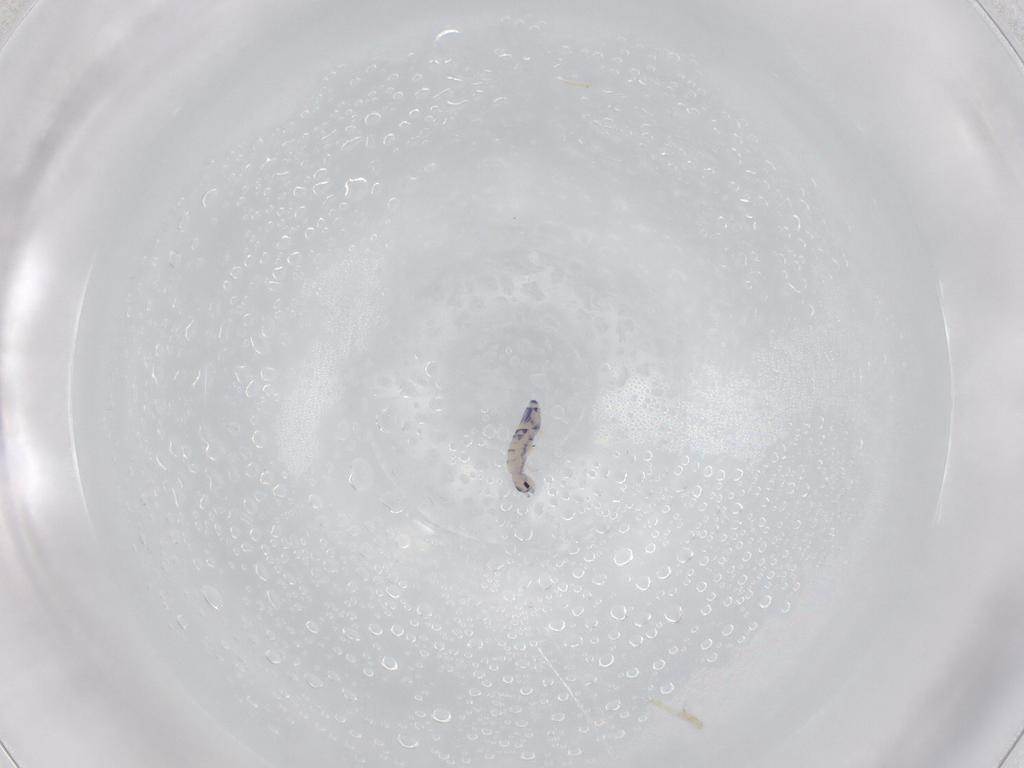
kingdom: Animalia
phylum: Arthropoda
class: Collembola
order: Entomobryomorpha
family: Entomobryidae
